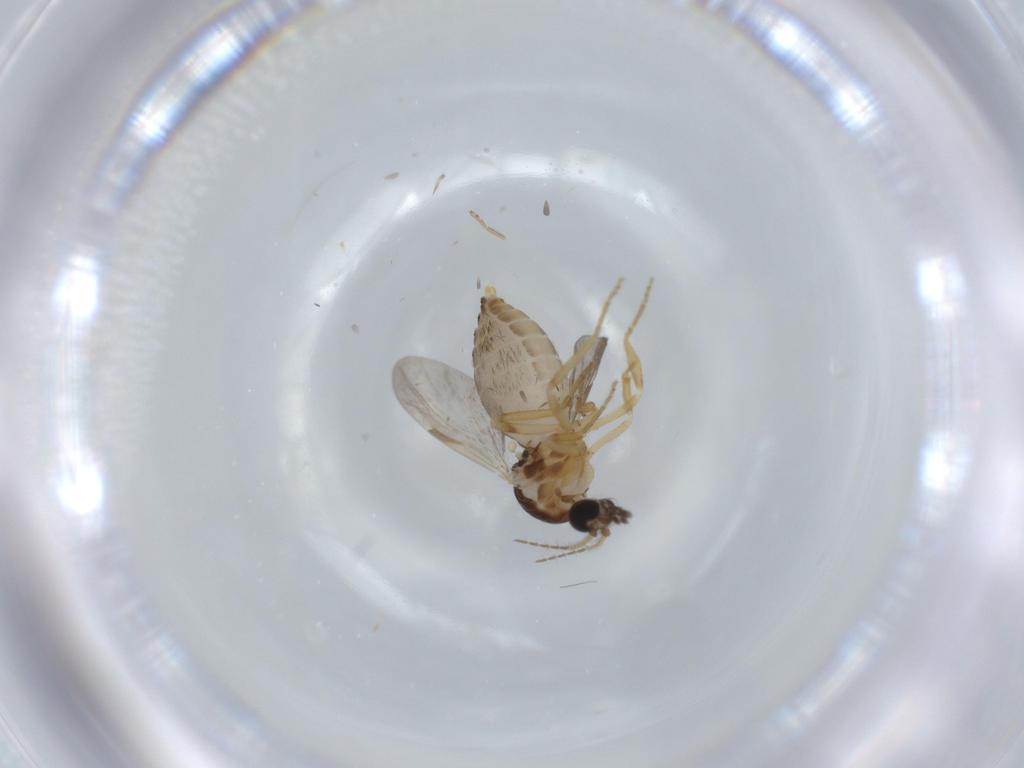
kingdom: Animalia
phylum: Arthropoda
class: Insecta
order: Diptera
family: Ceratopogonidae
